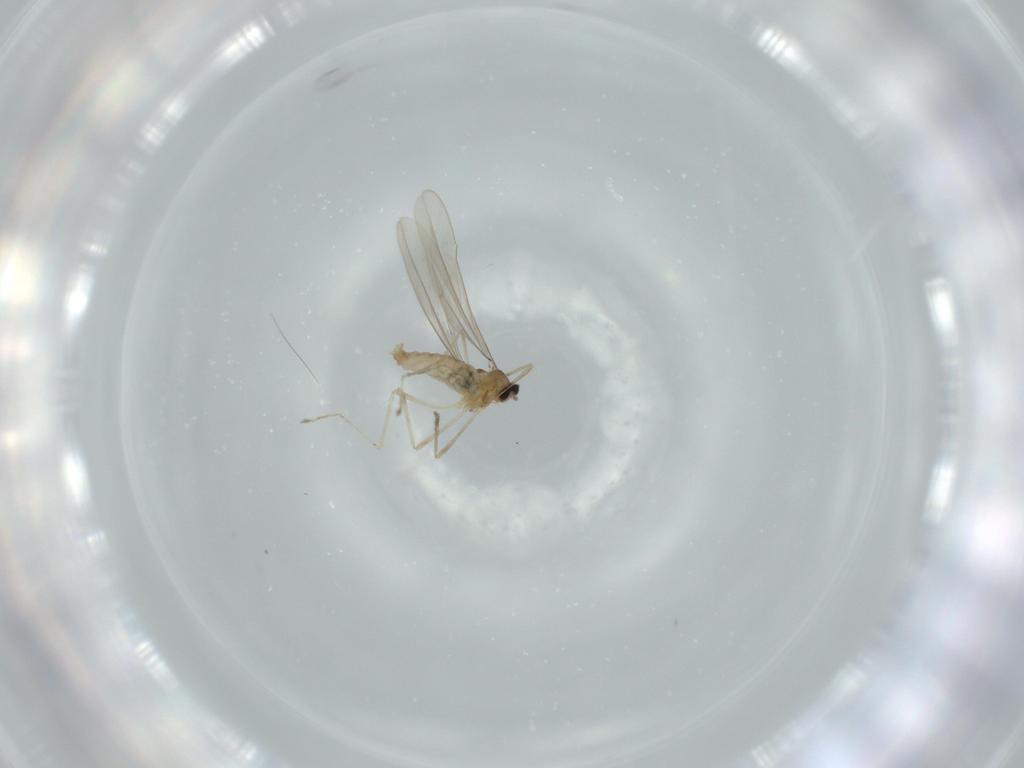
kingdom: Animalia
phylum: Arthropoda
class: Insecta
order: Diptera
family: Cecidomyiidae
